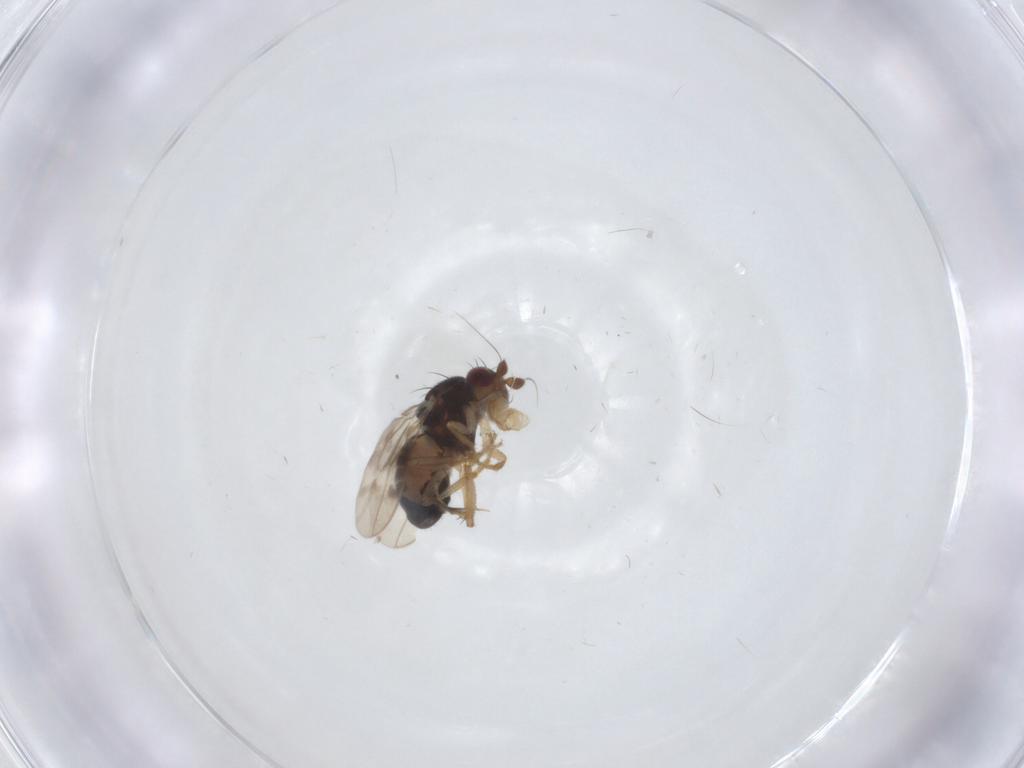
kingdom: Animalia
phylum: Arthropoda
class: Insecta
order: Diptera
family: Sphaeroceridae
